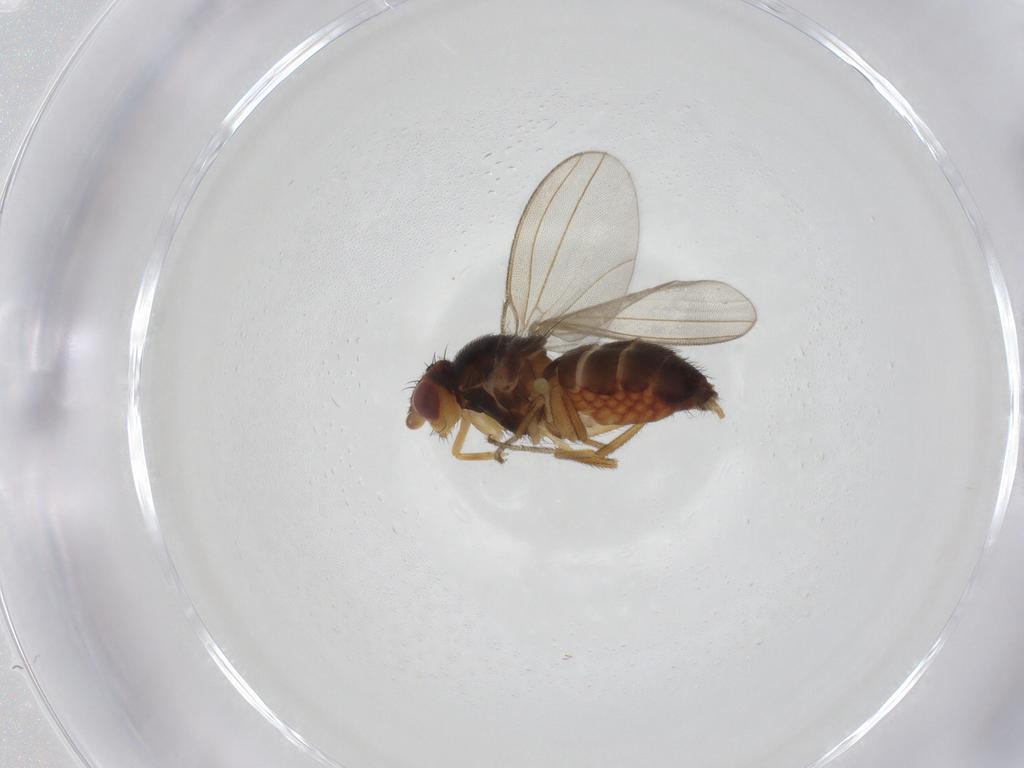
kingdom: Animalia
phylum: Arthropoda
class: Insecta
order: Diptera
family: Milichiidae
